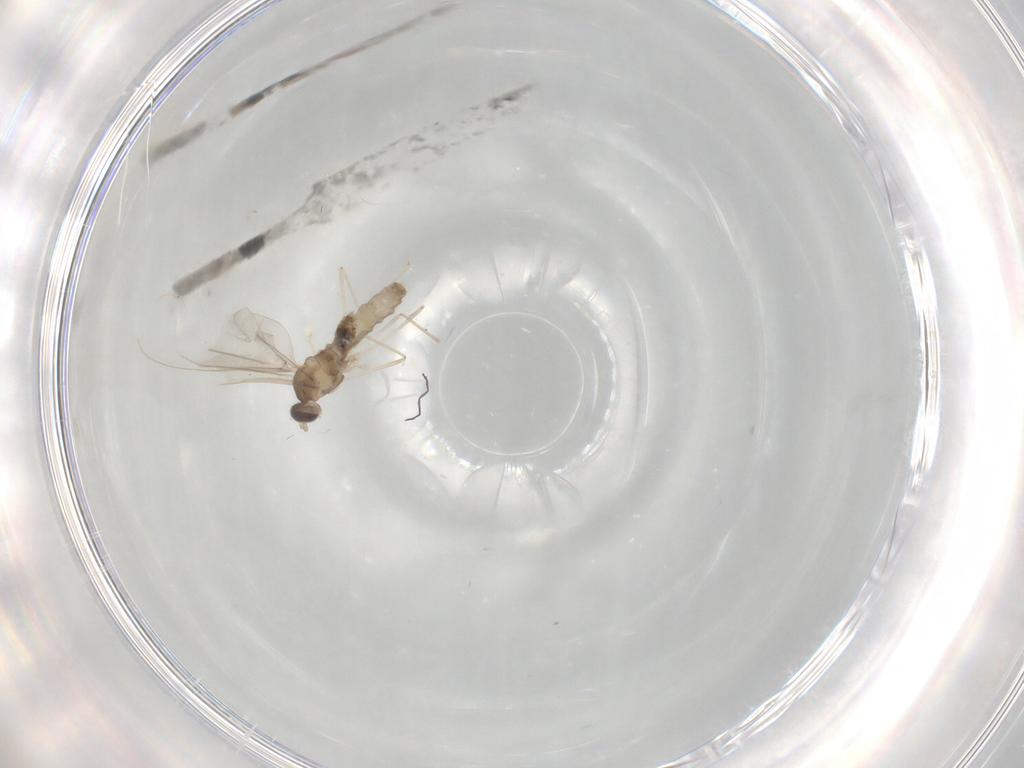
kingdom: Animalia
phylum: Arthropoda
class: Insecta
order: Diptera
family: Cecidomyiidae
